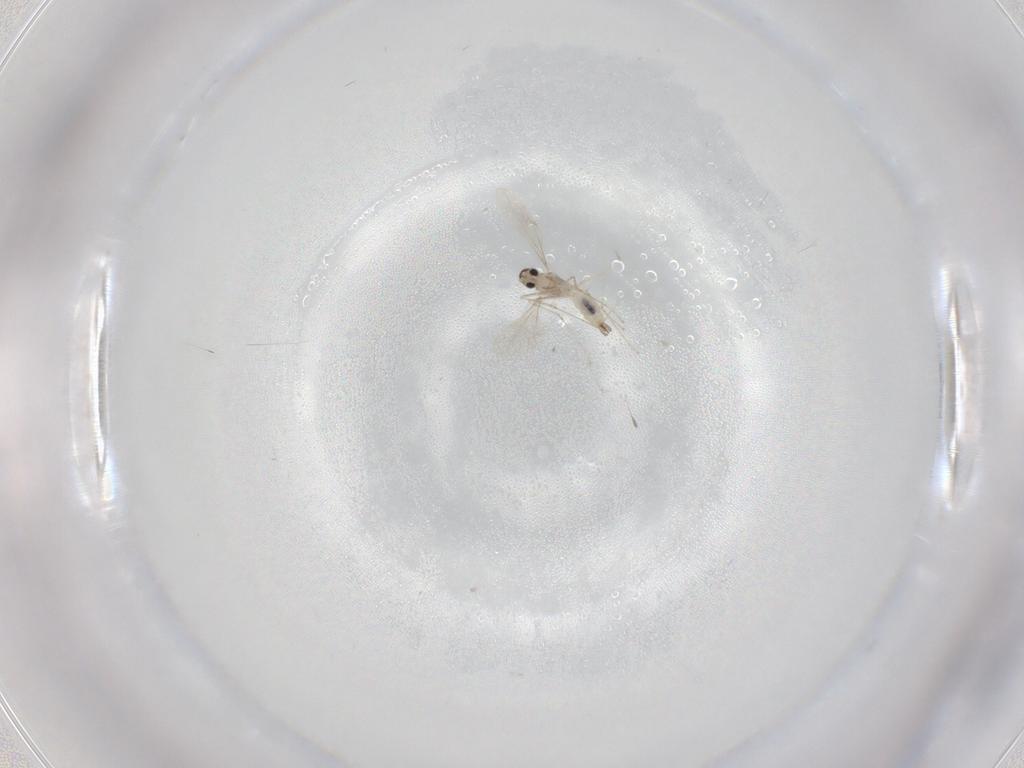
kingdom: Animalia
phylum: Arthropoda
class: Insecta
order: Diptera
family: Cecidomyiidae
